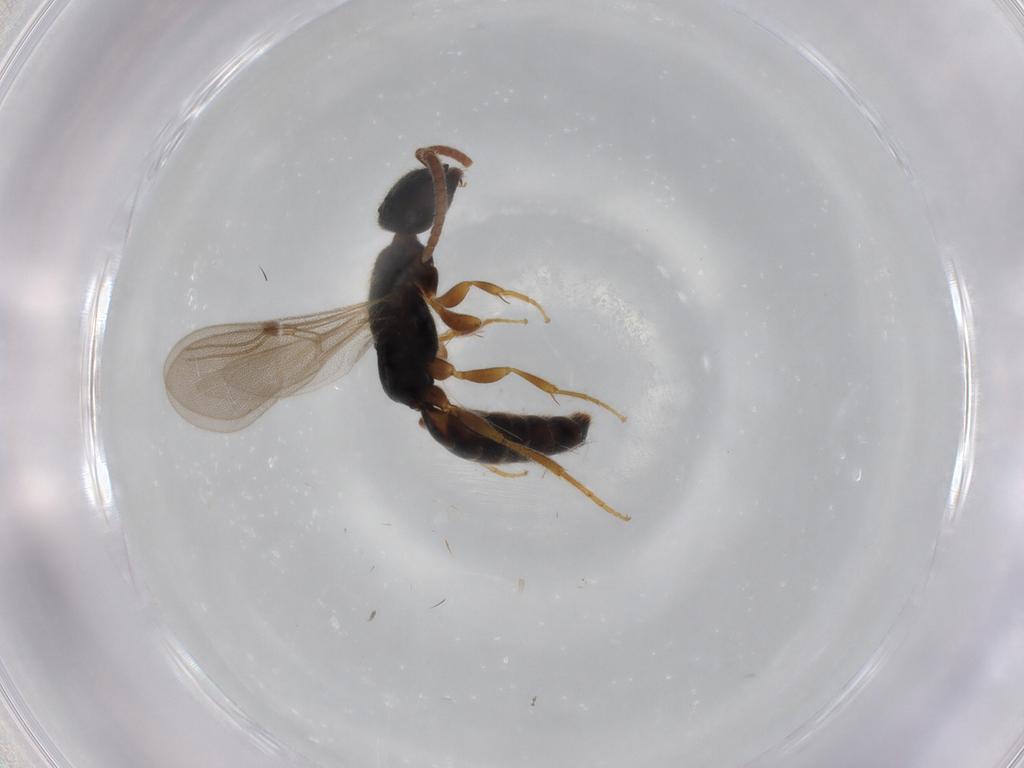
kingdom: Animalia
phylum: Arthropoda
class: Insecta
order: Hymenoptera
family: Bethylidae
